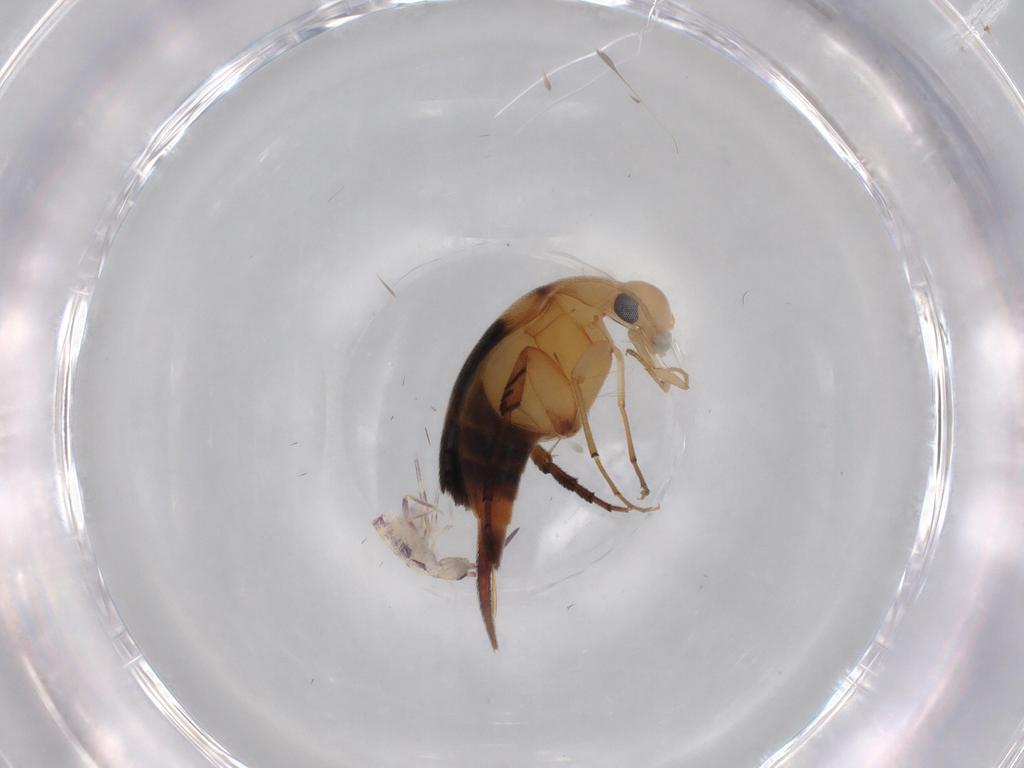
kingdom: Animalia
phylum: Arthropoda
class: Insecta
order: Coleoptera
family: Mordellidae
